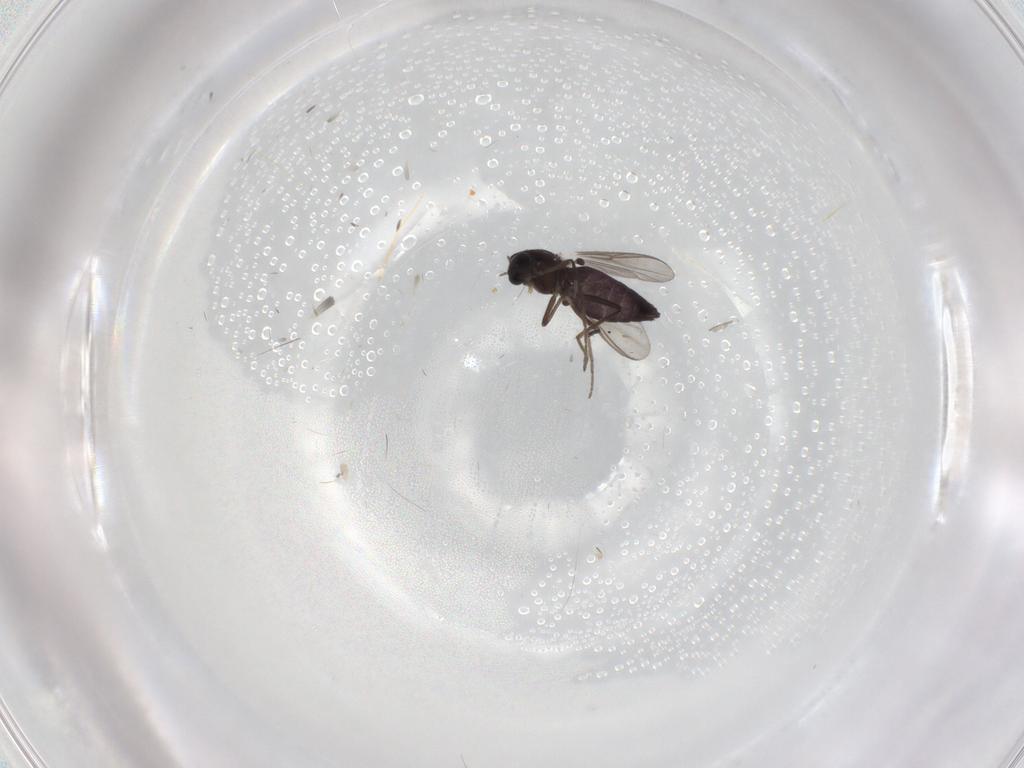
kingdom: Animalia
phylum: Arthropoda
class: Insecta
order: Diptera
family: Chironomidae
